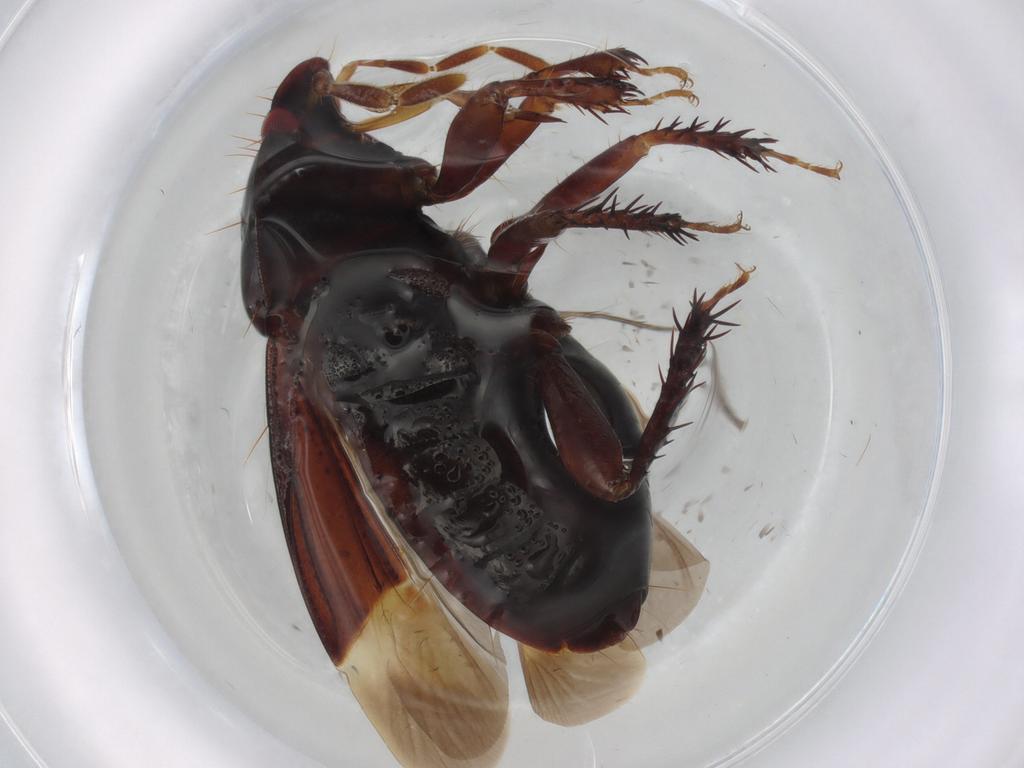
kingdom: Animalia
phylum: Arthropoda
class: Insecta
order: Hemiptera
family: Cydnidae
